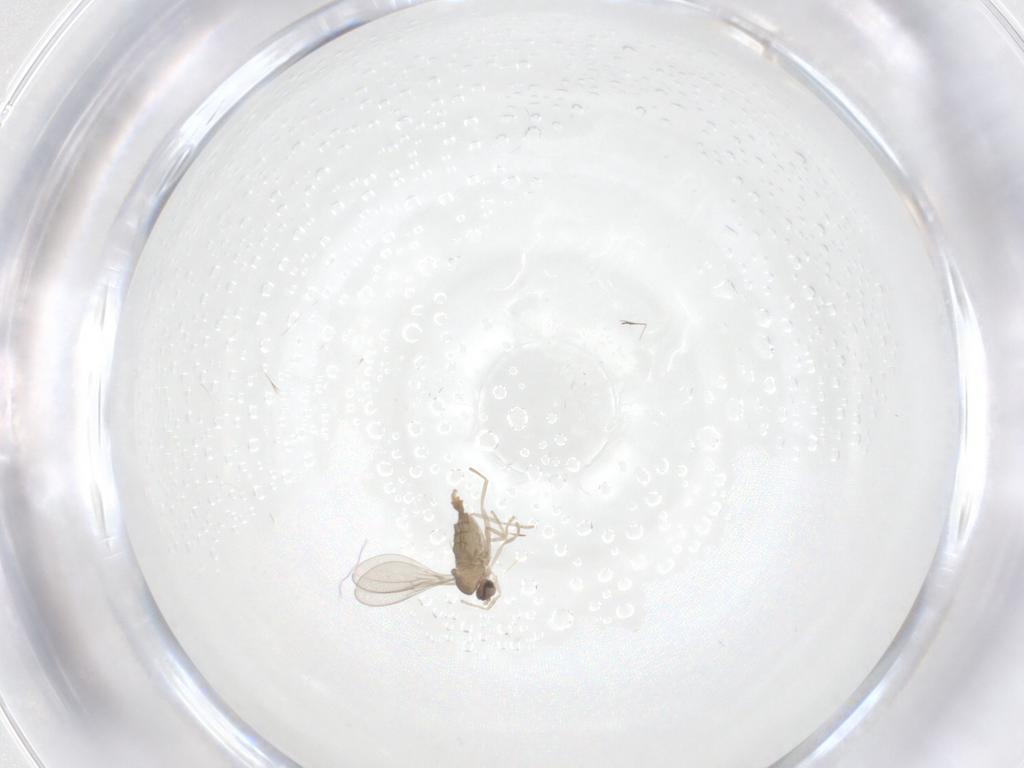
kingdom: Animalia
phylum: Arthropoda
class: Insecta
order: Diptera
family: Cecidomyiidae
